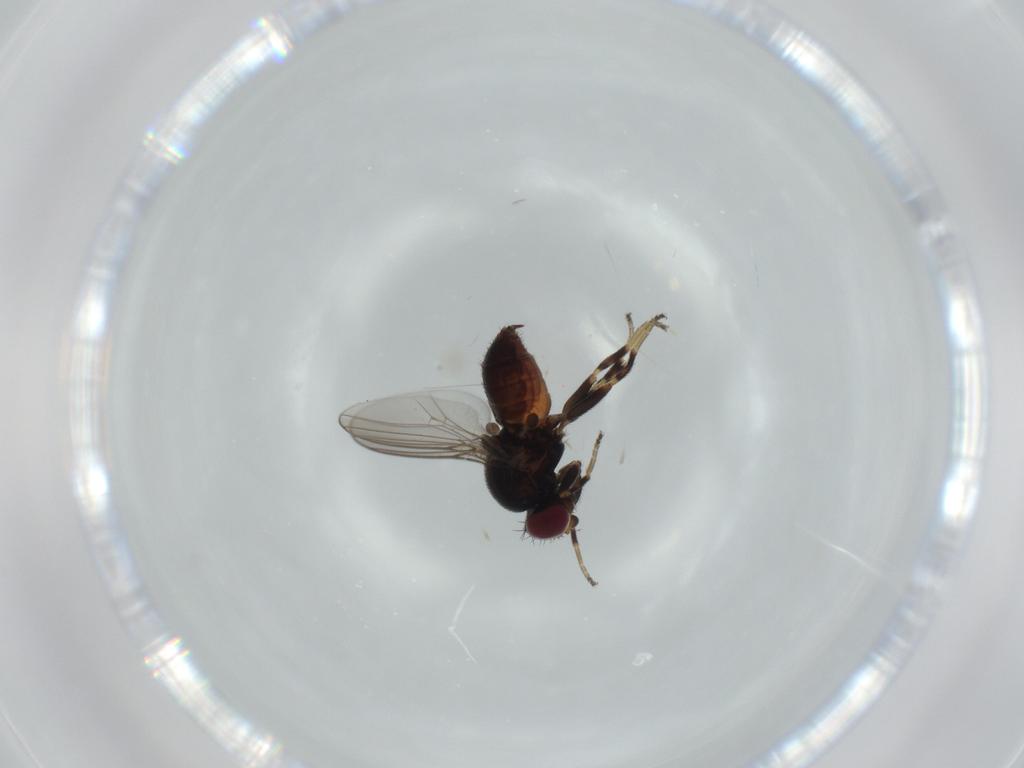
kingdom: Animalia
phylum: Arthropoda
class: Insecta
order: Diptera
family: Chloropidae
